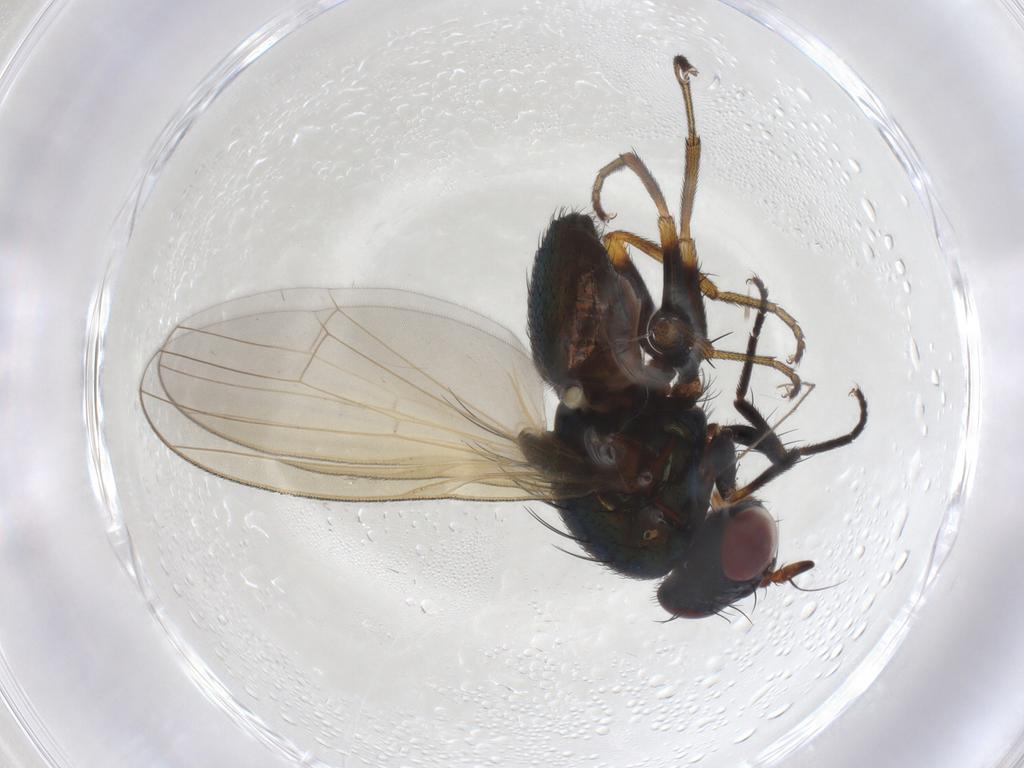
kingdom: Animalia
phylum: Arthropoda
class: Insecta
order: Diptera
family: Lauxaniidae
